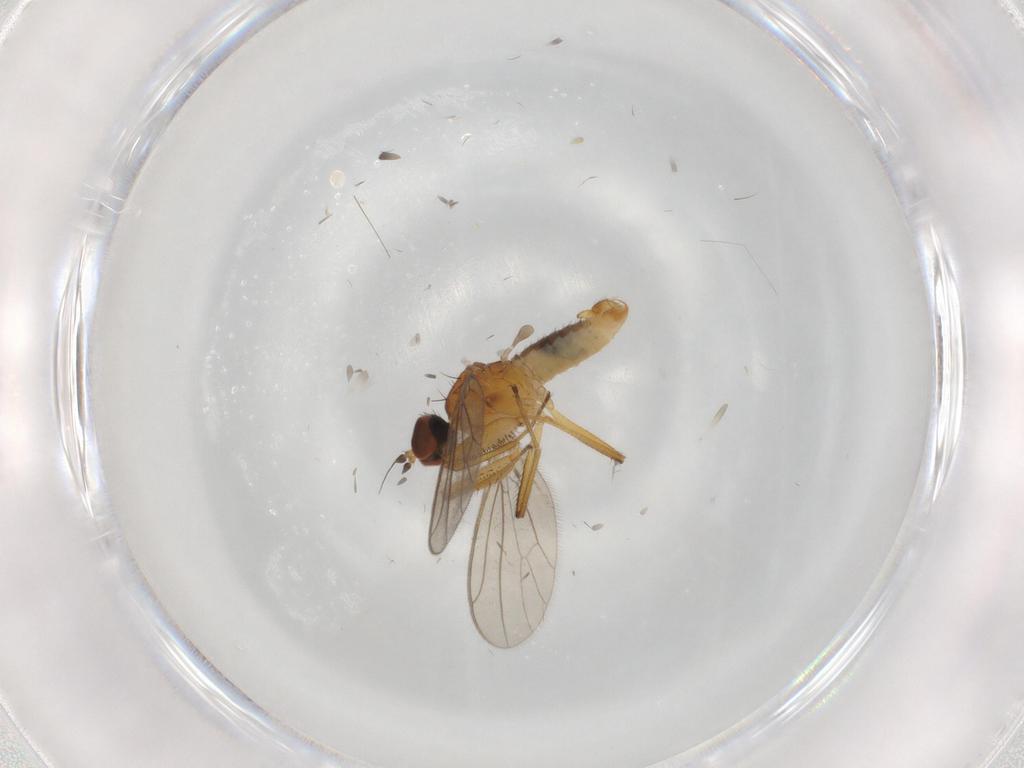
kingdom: Animalia
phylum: Arthropoda
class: Insecta
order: Diptera
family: Empididae
